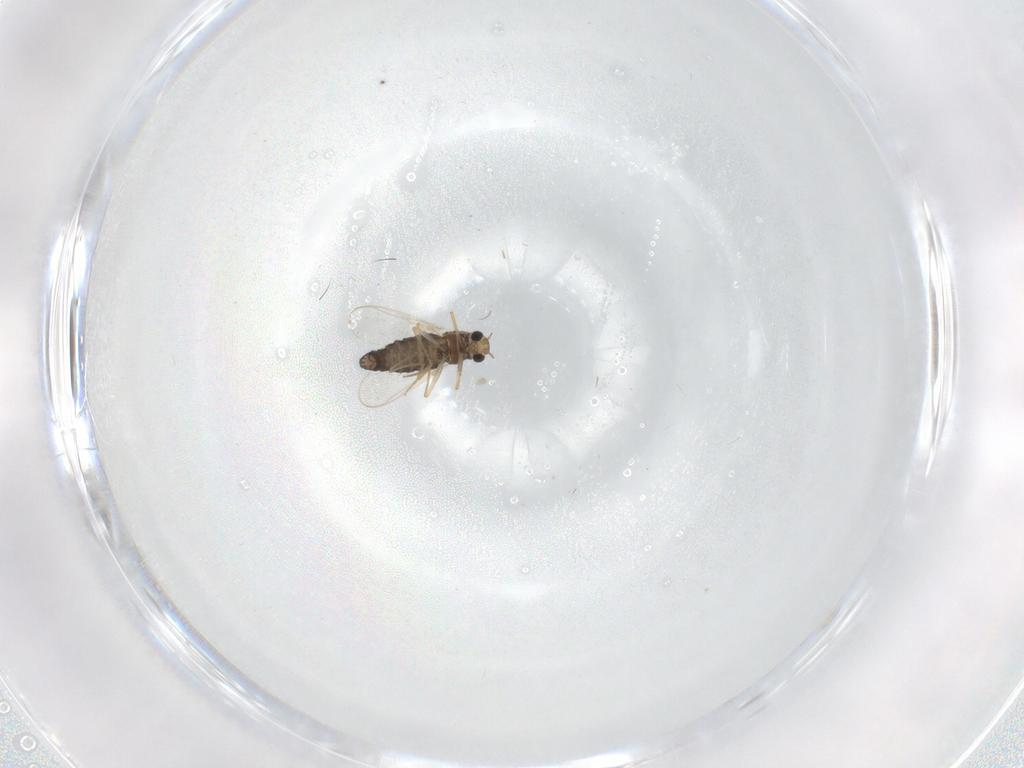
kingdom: Animalia
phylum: Arthropoda
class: Insecta
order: Diptera
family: Sciaridae
